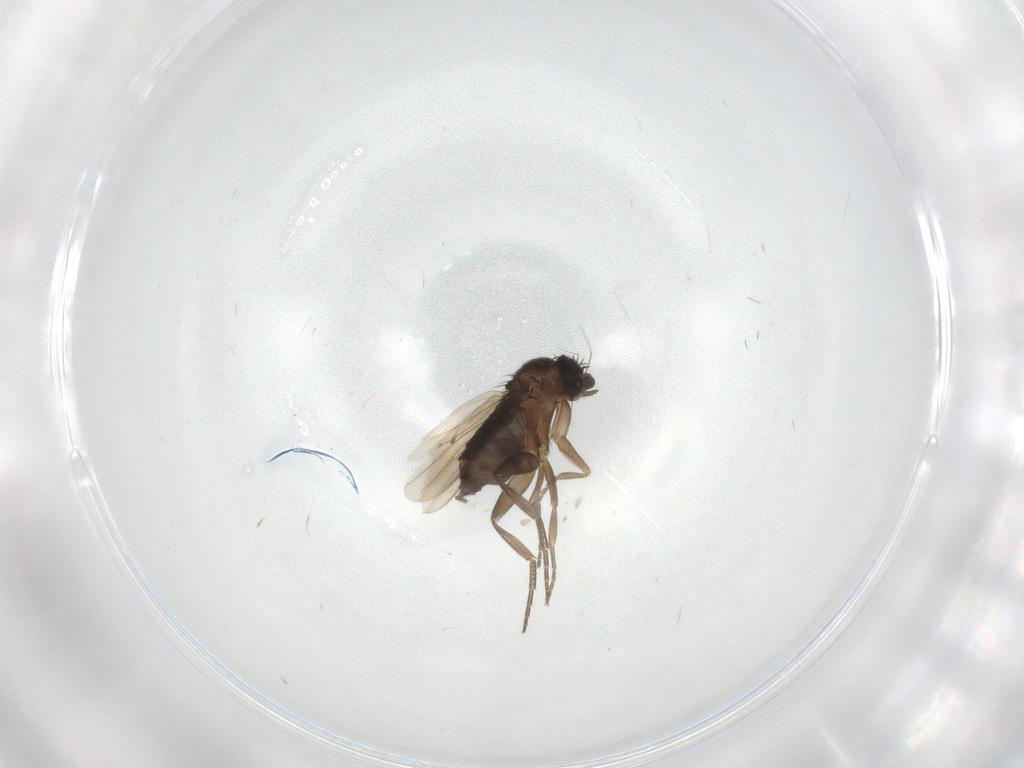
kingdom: Animalia
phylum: Arthropoda
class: Insecta
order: Diptera
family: Phoridae
